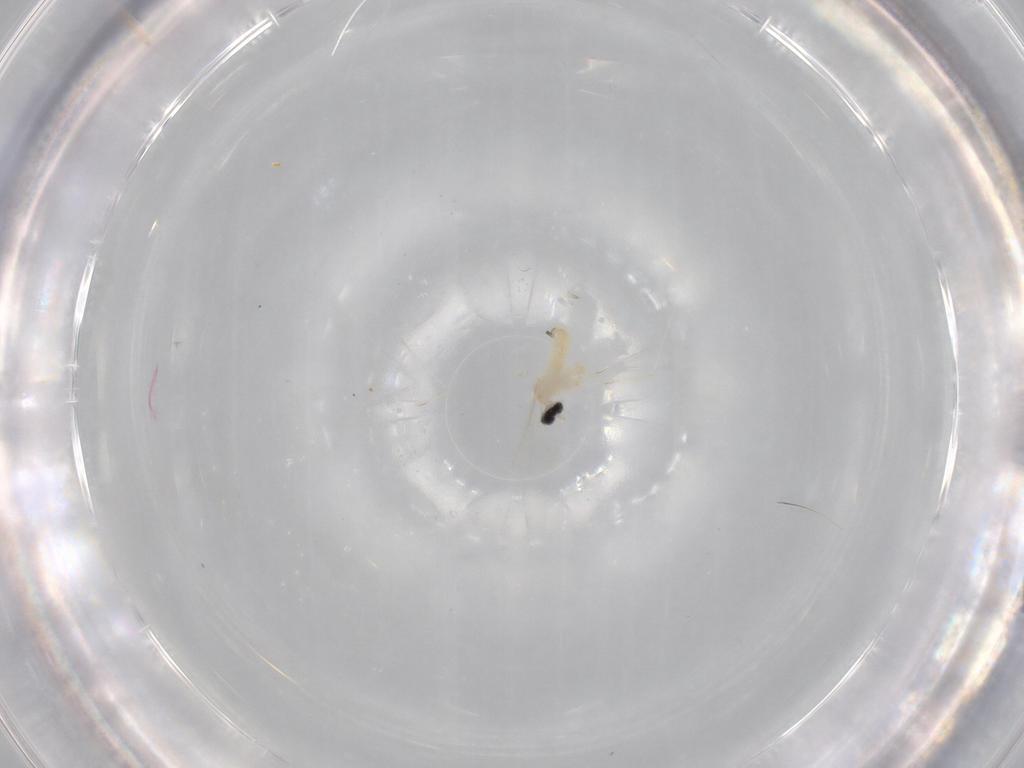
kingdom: Animalia
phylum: Arthropoda
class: Insecta
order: Diptera
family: Cecidomyiidae
